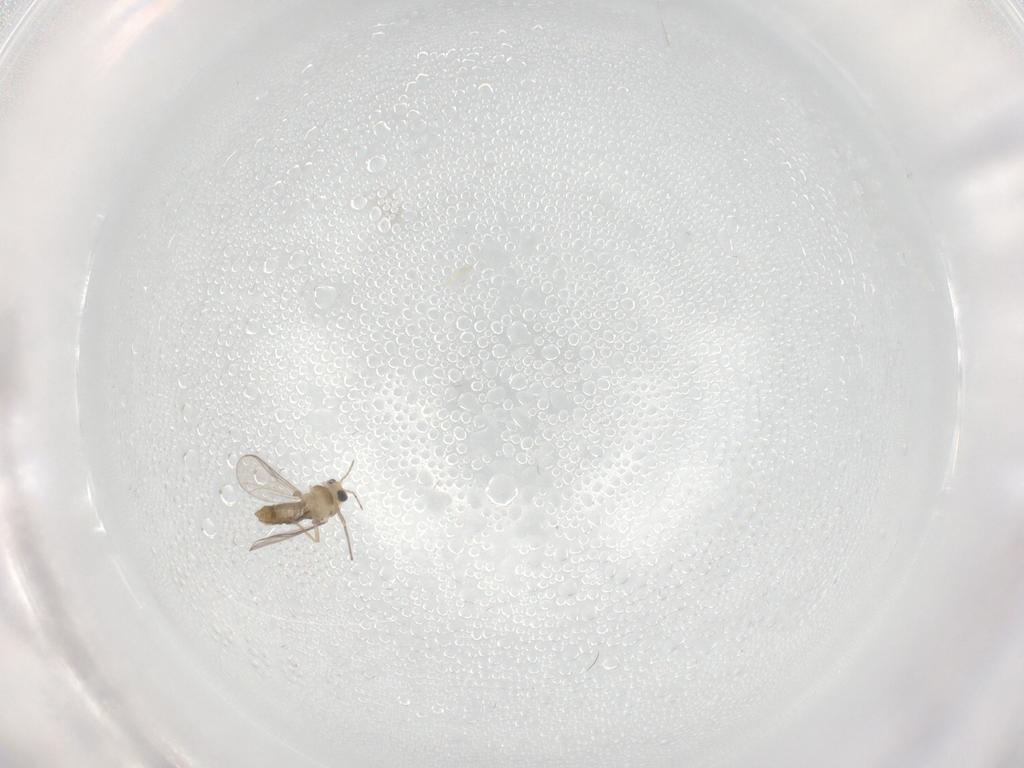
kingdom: Animalia
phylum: Arthropoda
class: Insecta
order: Diptera
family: Chironomidae
